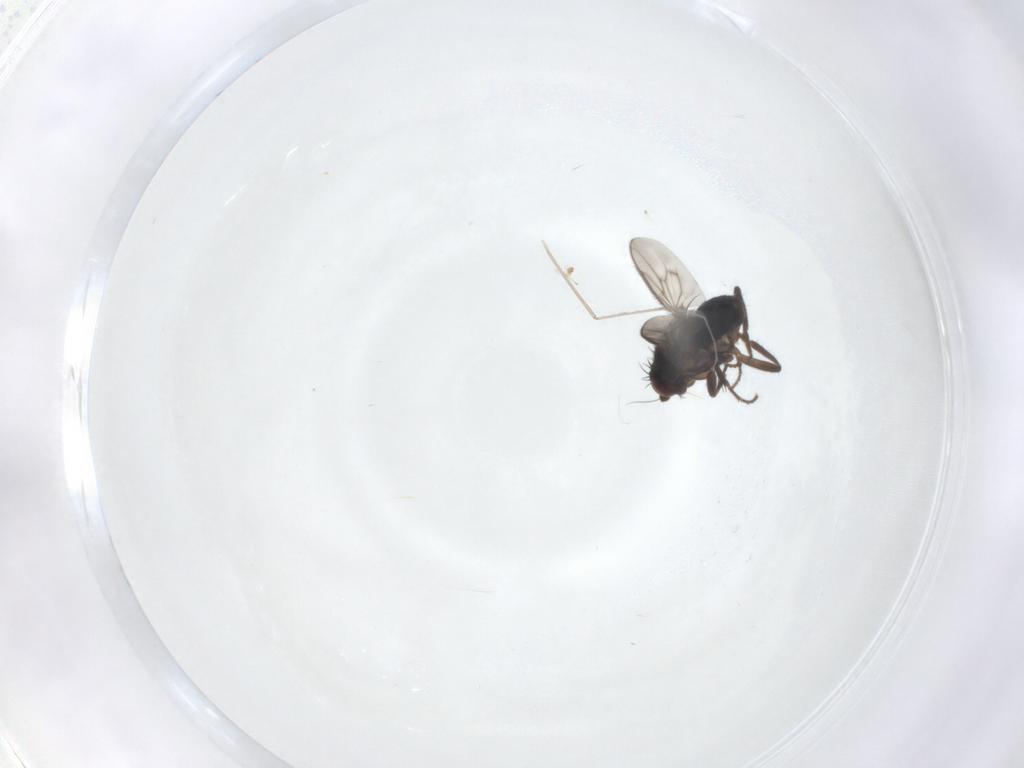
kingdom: Animalia
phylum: Arthropoda
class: Insecta
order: Diptera
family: Sphaeroceridae
